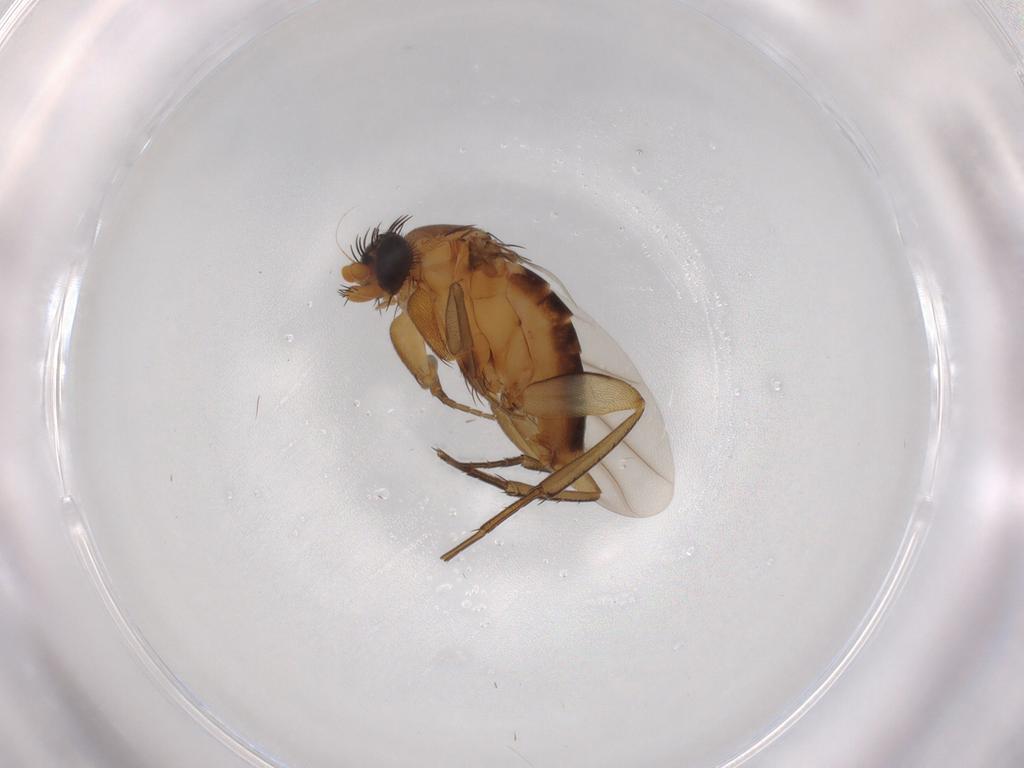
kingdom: Animalia
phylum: Arthropoda
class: Insecta
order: Diptera
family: Phoridae
